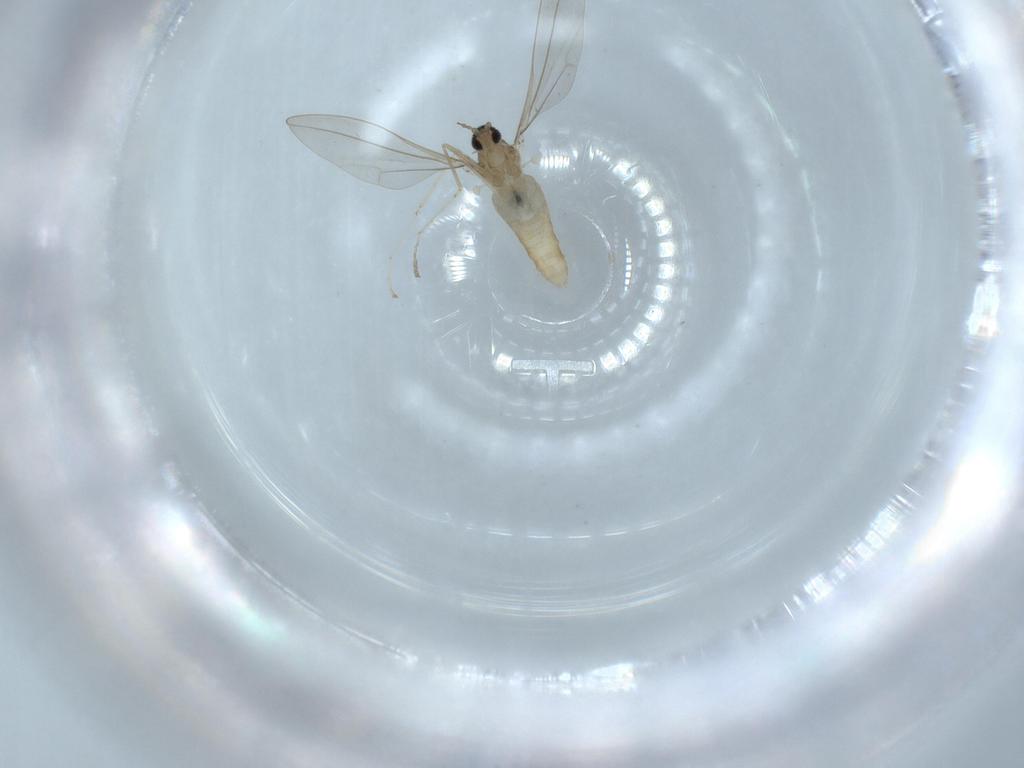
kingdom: Animalia
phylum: Arthropoda
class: Insecta
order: Diptera
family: Cecidomyiidae
